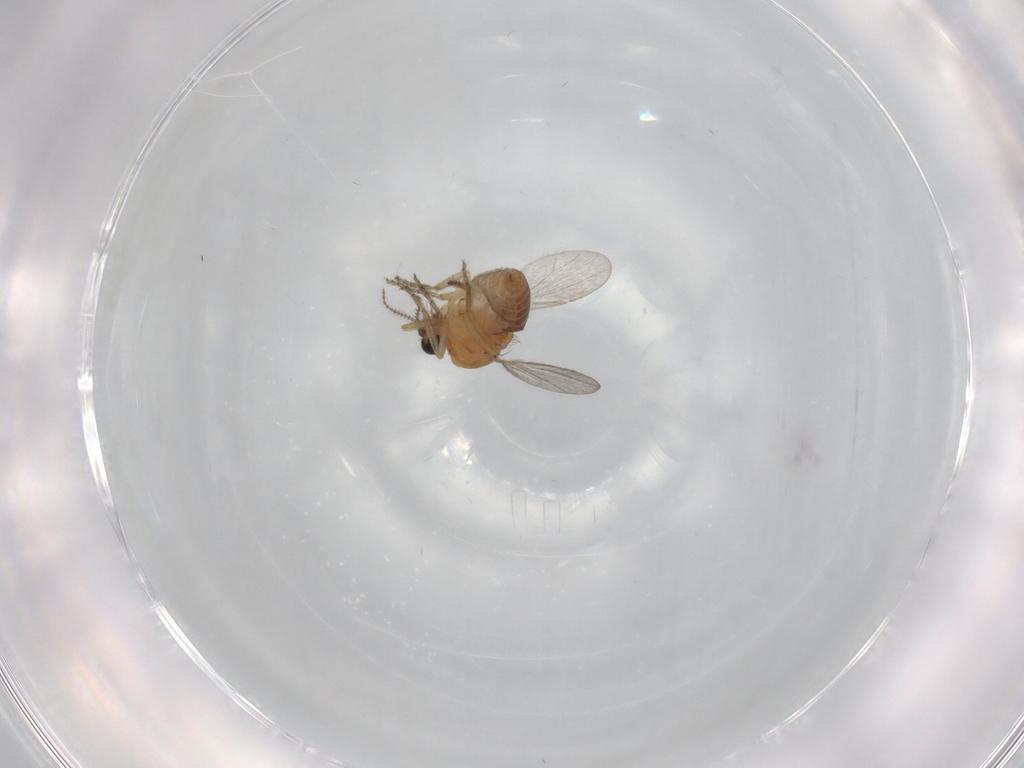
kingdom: Animalia
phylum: Arthropoda
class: Insecta
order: Diptera
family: Ceratopogonidae
